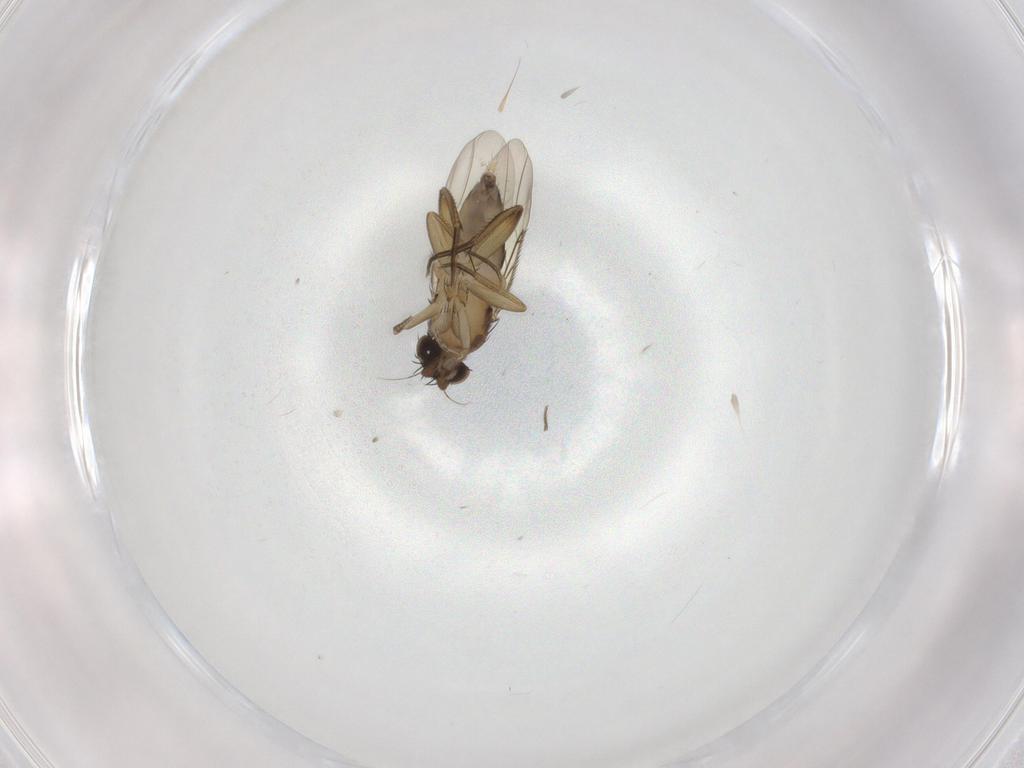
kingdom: Animalia
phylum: Arthropoda
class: Insecta
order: Diptera
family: Phoridae
